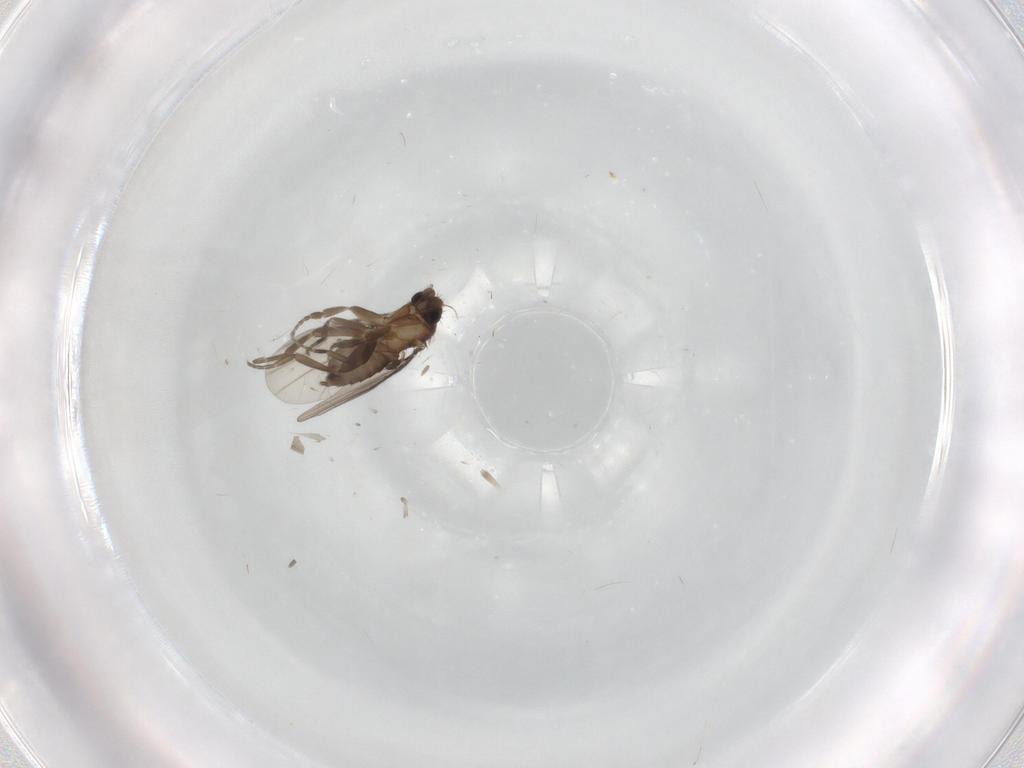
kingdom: Animalia
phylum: Arthropoda
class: Insecta
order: Diptera
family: Phoridae
